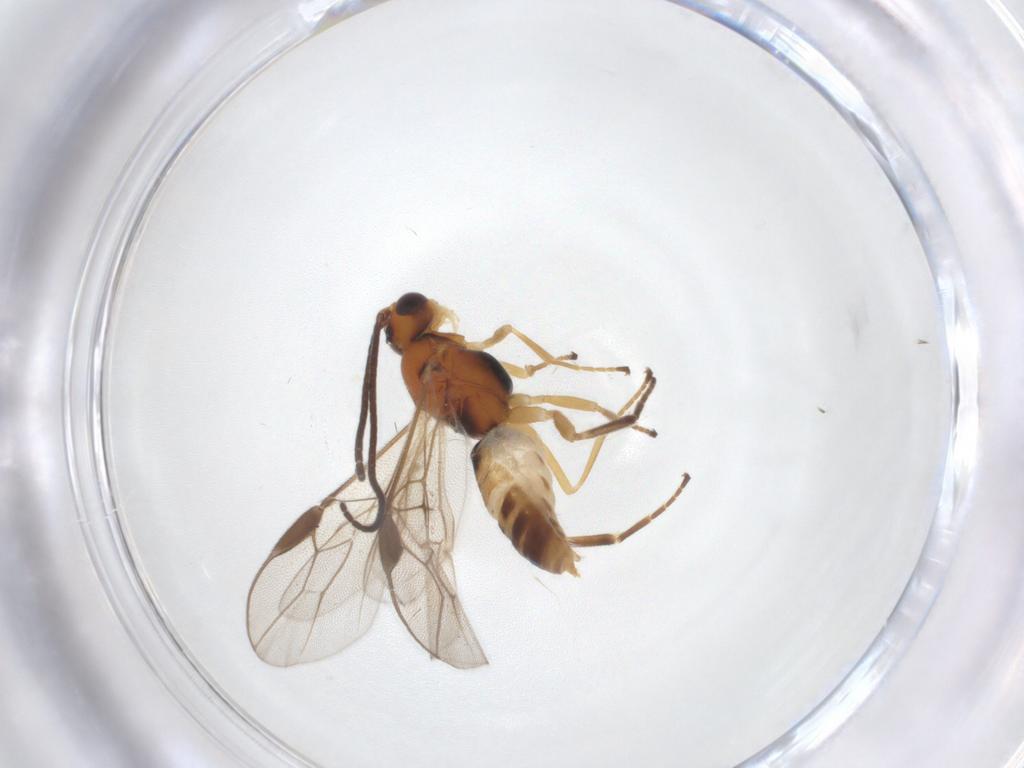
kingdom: Animalia
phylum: Arthropoda
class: Insecta
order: Hymenoptera
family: Braconidae
